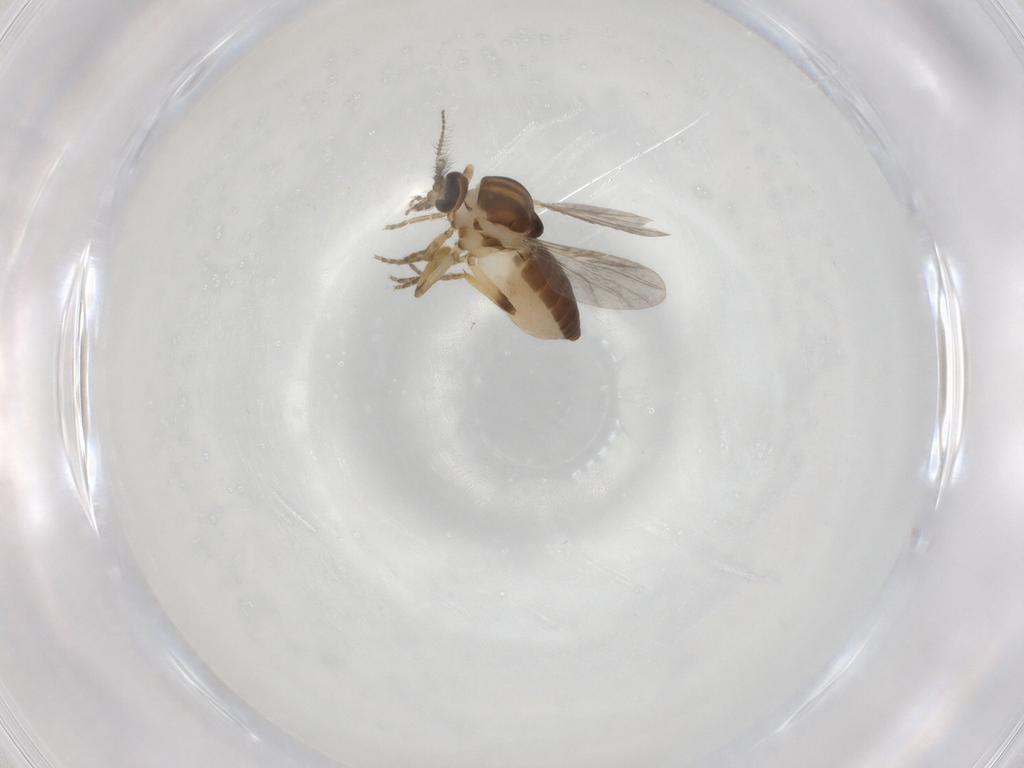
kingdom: Animalia
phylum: Arthropoda
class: Insecta
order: Diptera
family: Ceratopogonidae
